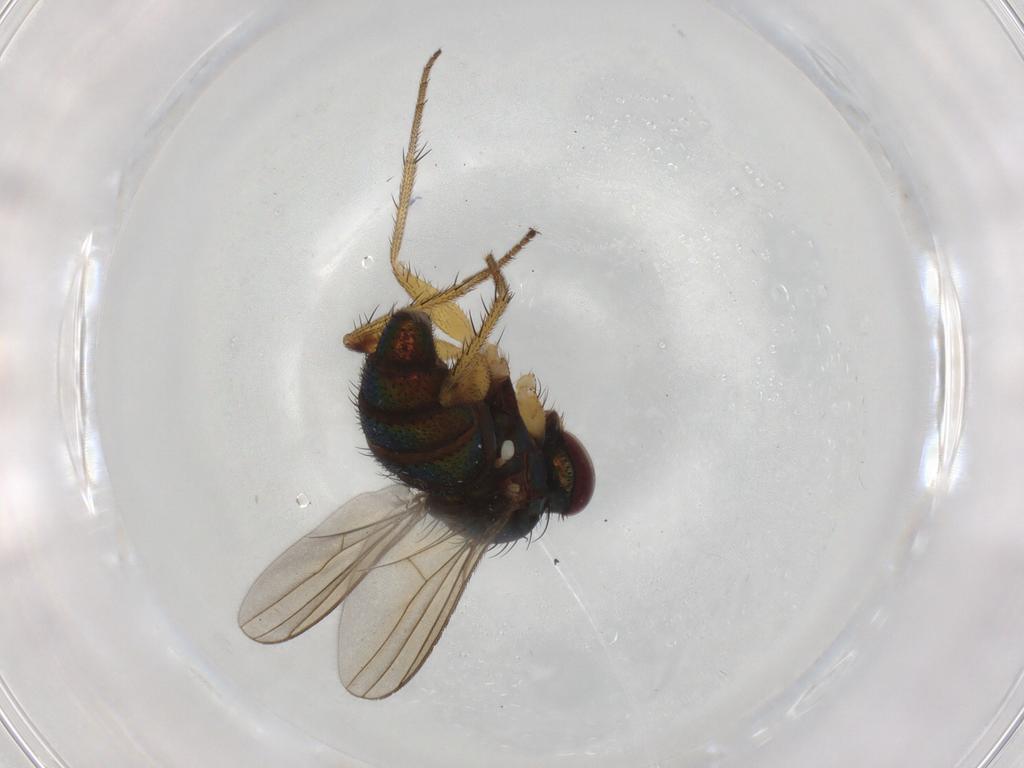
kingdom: Animalia
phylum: Arthropoda
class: Insecta
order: Diptera
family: Dolichopodidae
